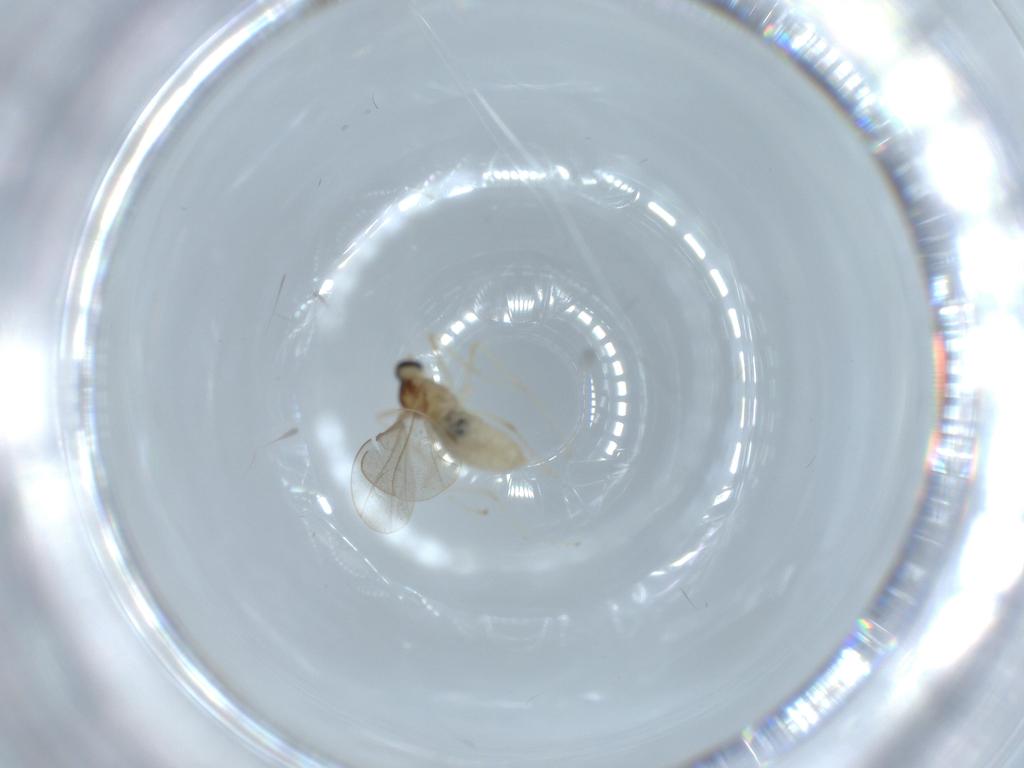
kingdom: Animalia
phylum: Arthropoda
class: Insecta
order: Diptera
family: Cecidomyiidae
